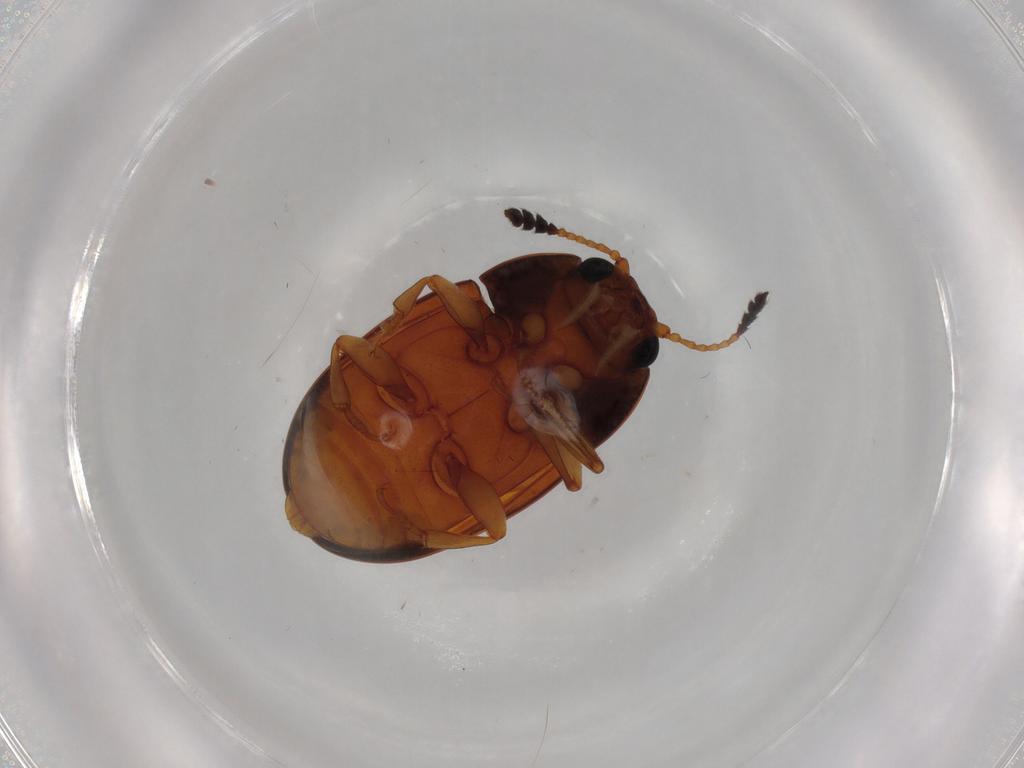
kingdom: Animalia
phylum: Arthropoda
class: Insecta
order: Coleoptera
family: Erotylidae
